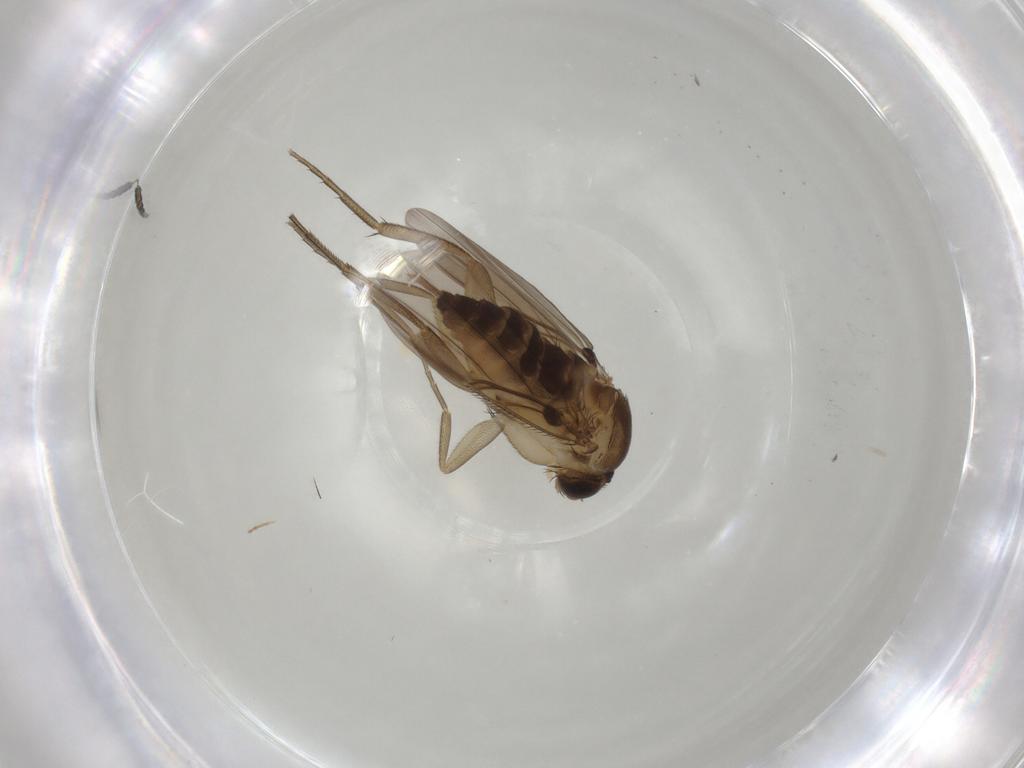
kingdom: Animalia
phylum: Arthropoda
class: Insecta
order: Diptera
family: Phoridae
